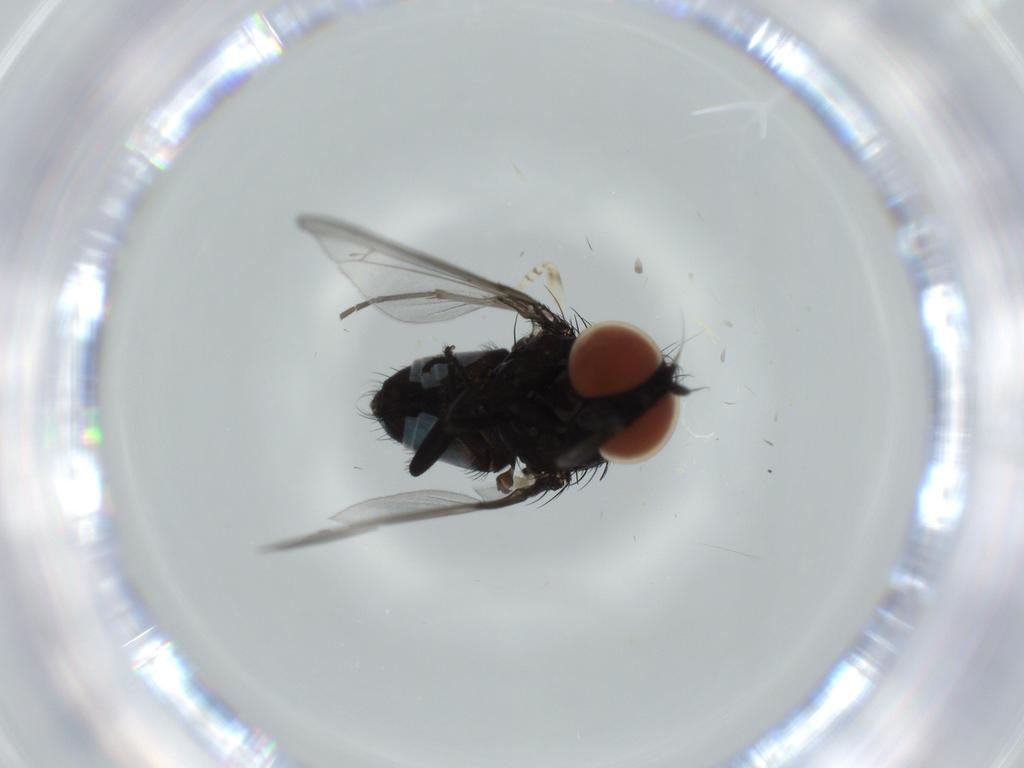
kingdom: Animalia
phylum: Arthropoda
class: Insecta
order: Diptera
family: Milichiidae
